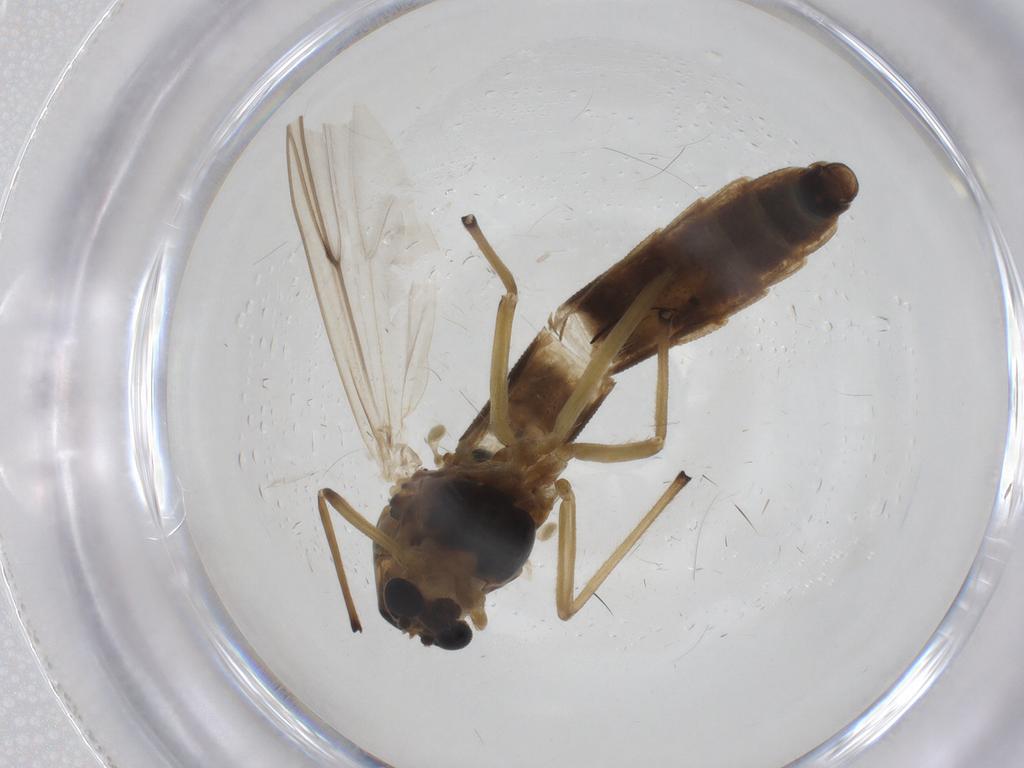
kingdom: Animalia
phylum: Arthropoda
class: Insecta
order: Diptera
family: Chironomidae
